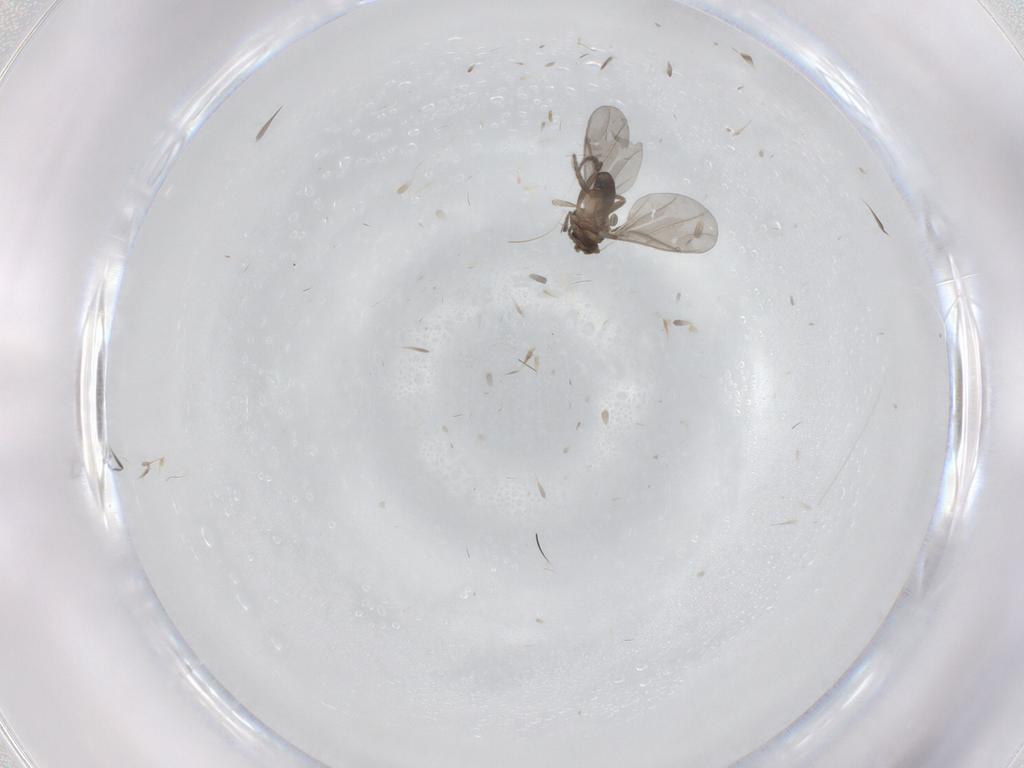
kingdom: Animalia
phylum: Arthropoda
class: Insecta
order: Diptera
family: Phoridae
